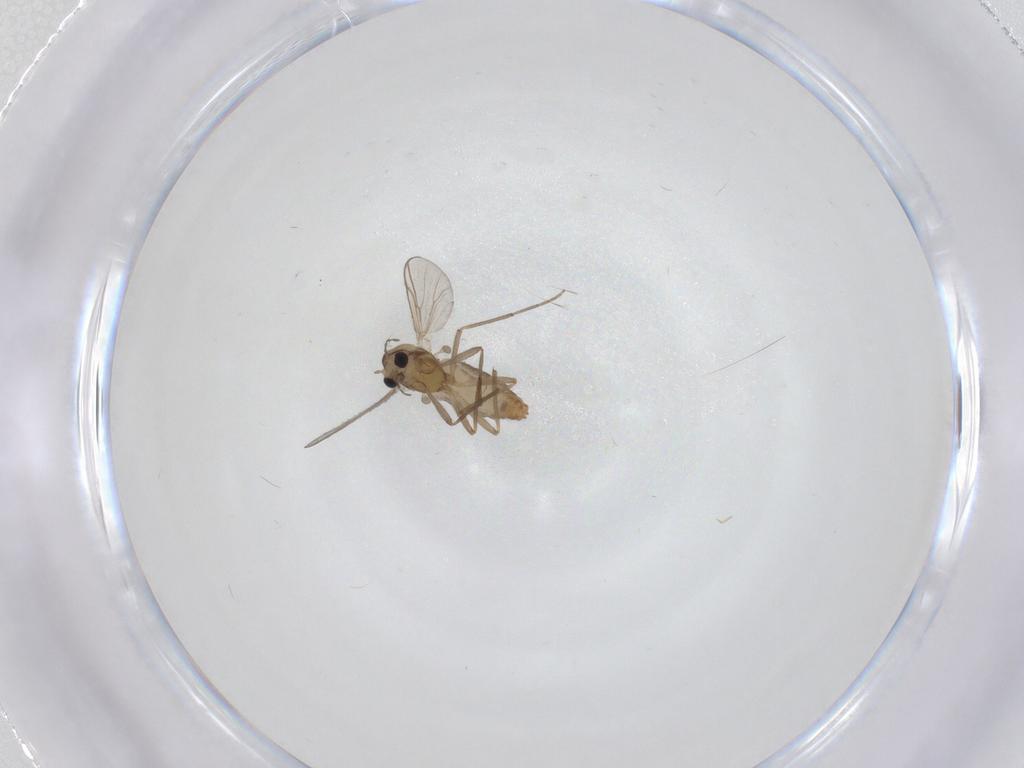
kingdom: Animalia
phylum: Arthropoda
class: Insecta
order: Diptera
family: Chironomidae
